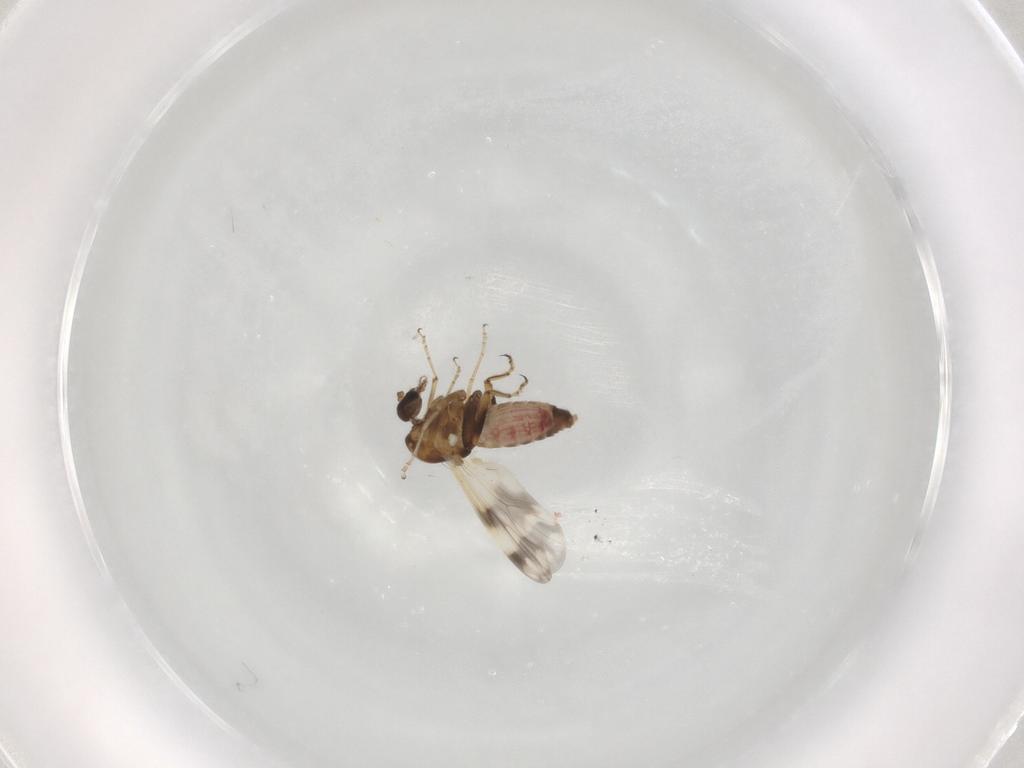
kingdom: Animalia
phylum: Arthropoda
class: Insecta
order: Diptera
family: Ceratopogonidae
